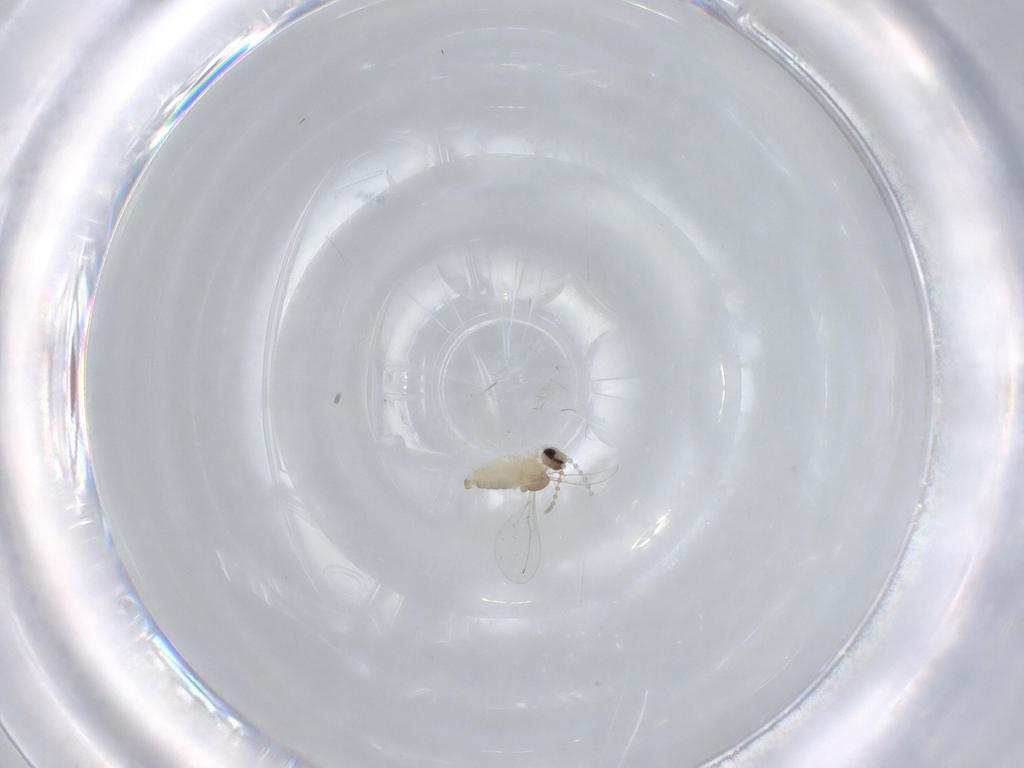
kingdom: Animalia
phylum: Arthropoda
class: Insecta
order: Diptera
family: Cecidomyiidae
